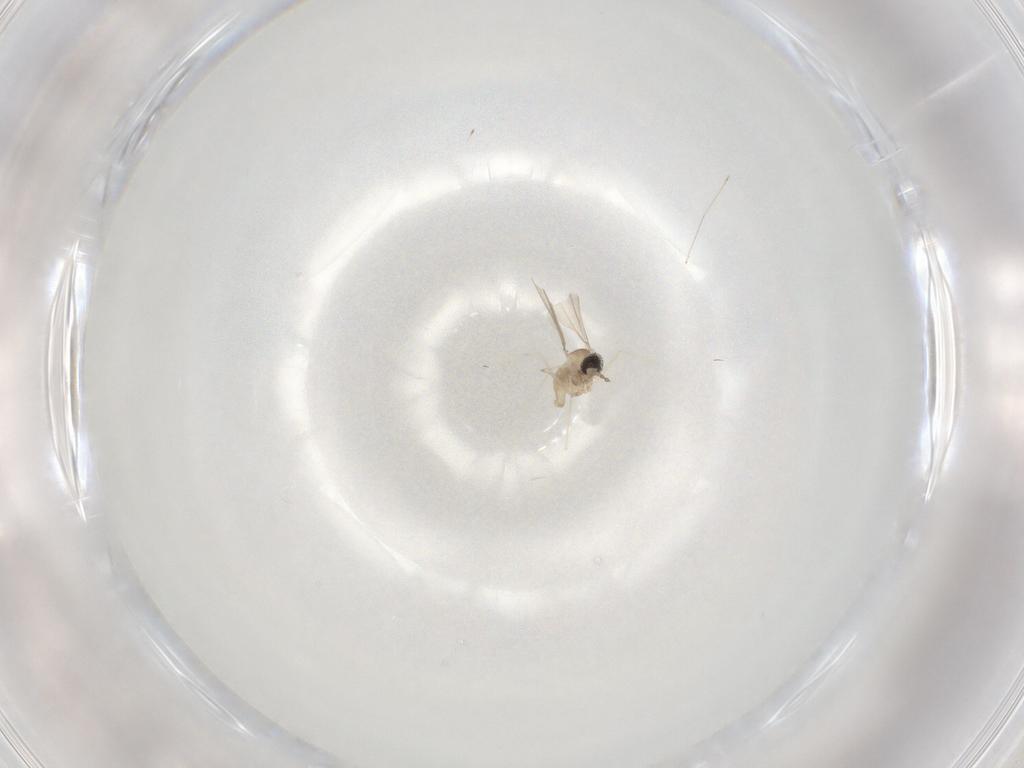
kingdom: Animalia
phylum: Arthropoda
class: Insecta
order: Diptera
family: Cecidomyiidae
